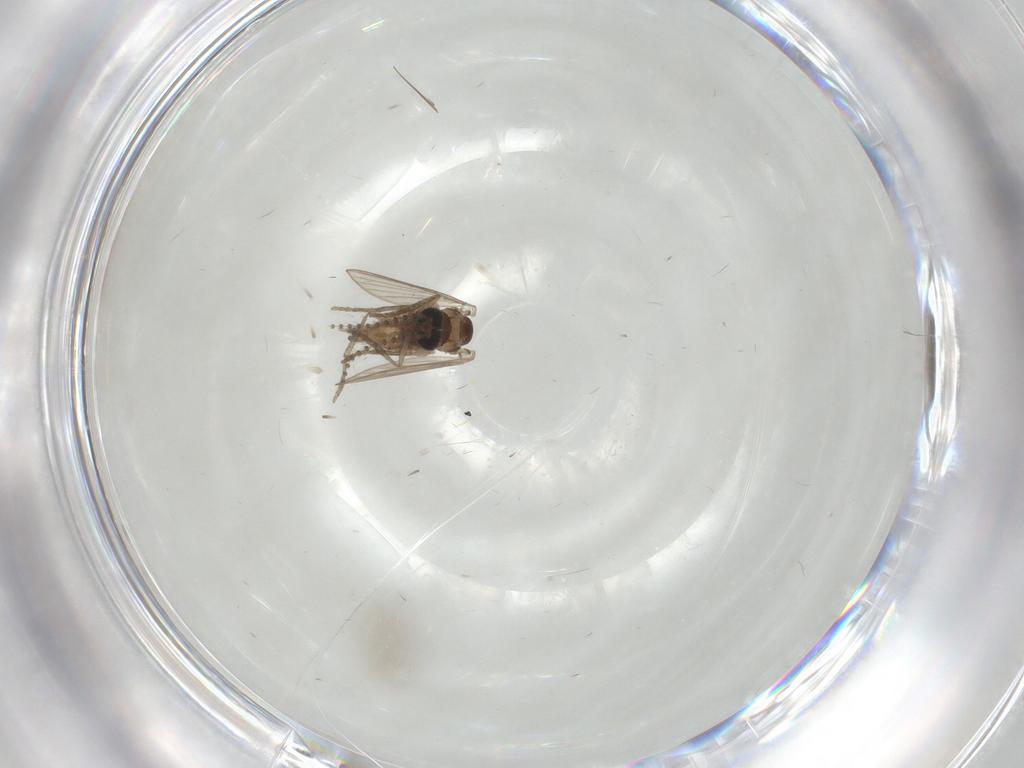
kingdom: Animalia
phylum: Arthropoda
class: Insecta
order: Diptera
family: Psychodidae
